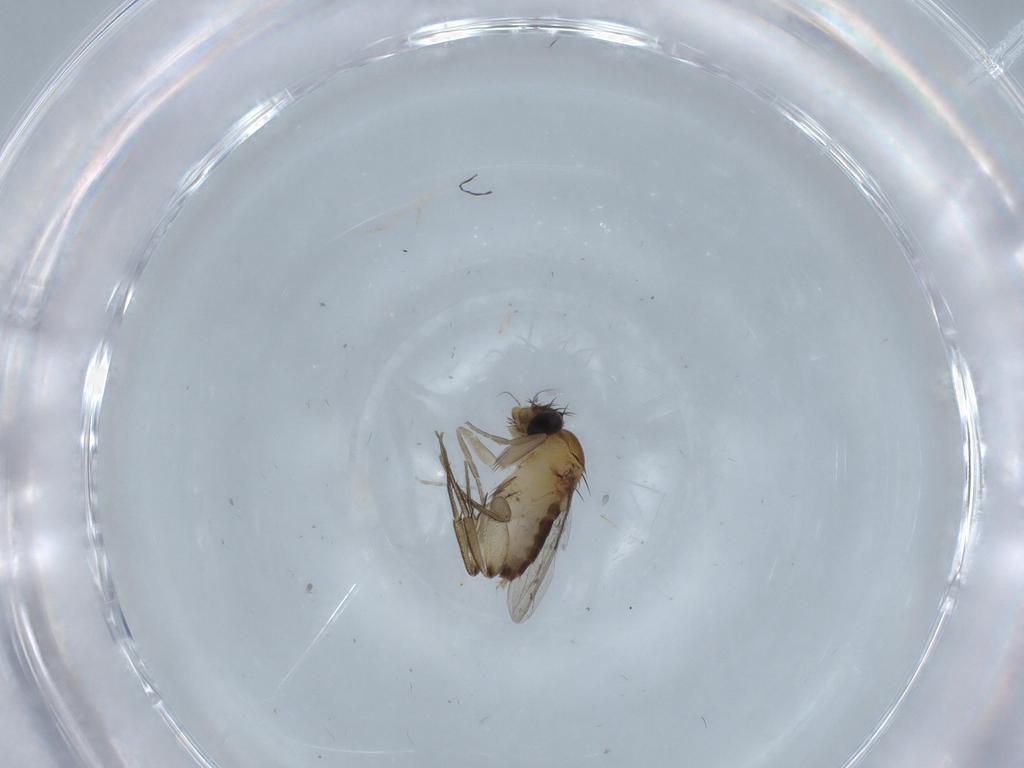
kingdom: Animalia
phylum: Arthropoda
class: Insecta
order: Diptera
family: Phoridae
